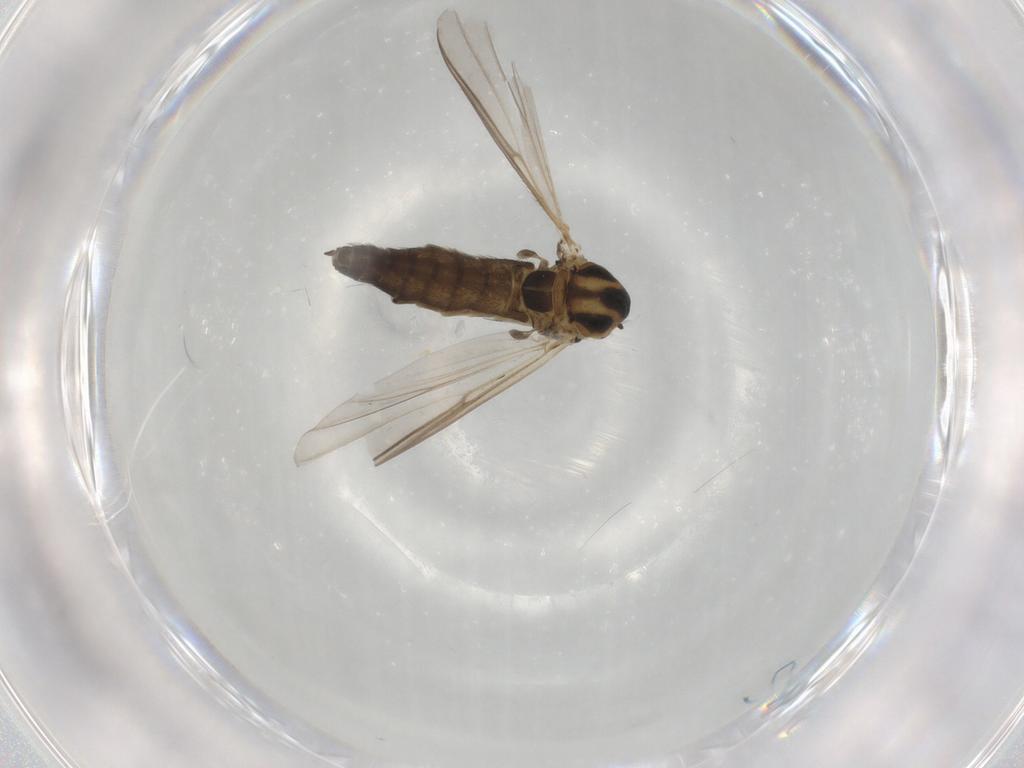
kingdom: Animalia
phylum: Arthropoda
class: Insecta
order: Diptera
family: Chironomidae
